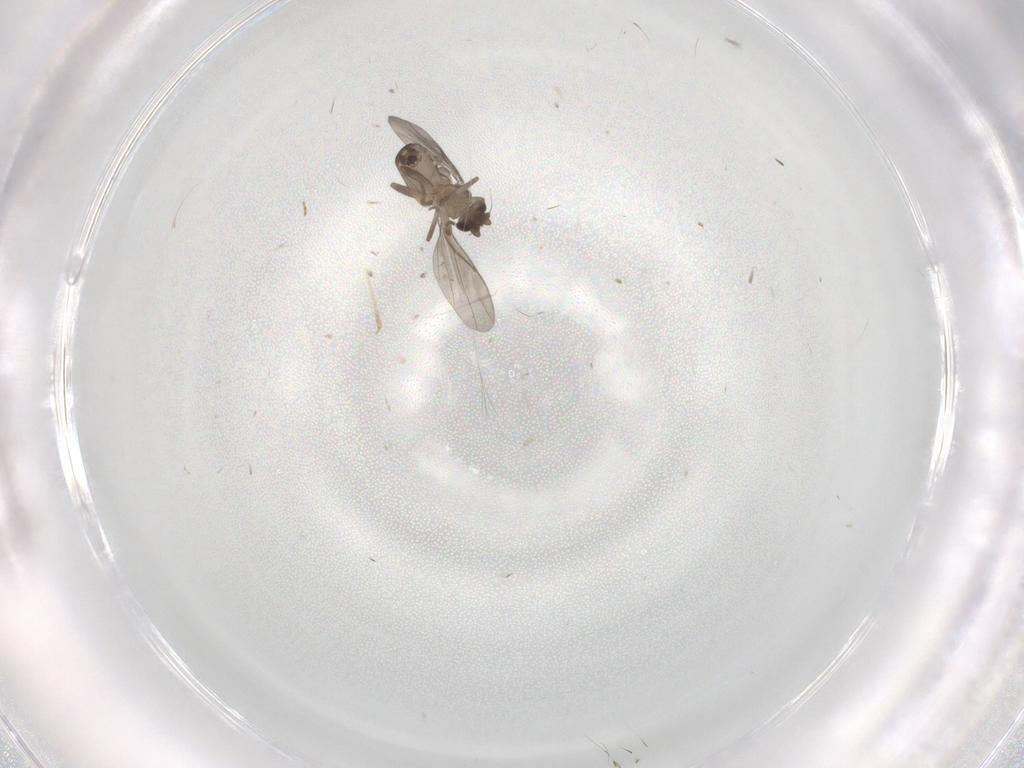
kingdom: Animalia
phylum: Arthropoda
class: Insecta
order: Diptera
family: Cecidomyiidae
